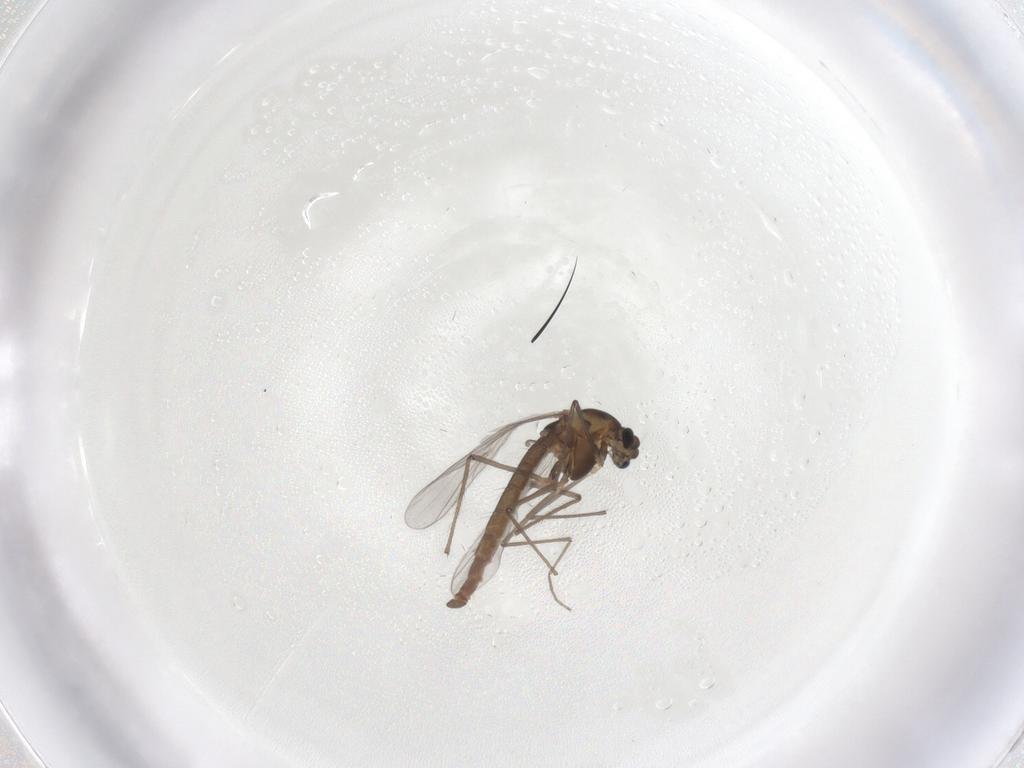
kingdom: Animalia
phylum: Arthropoda
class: Insecta
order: Diptera
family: Chironomidae
